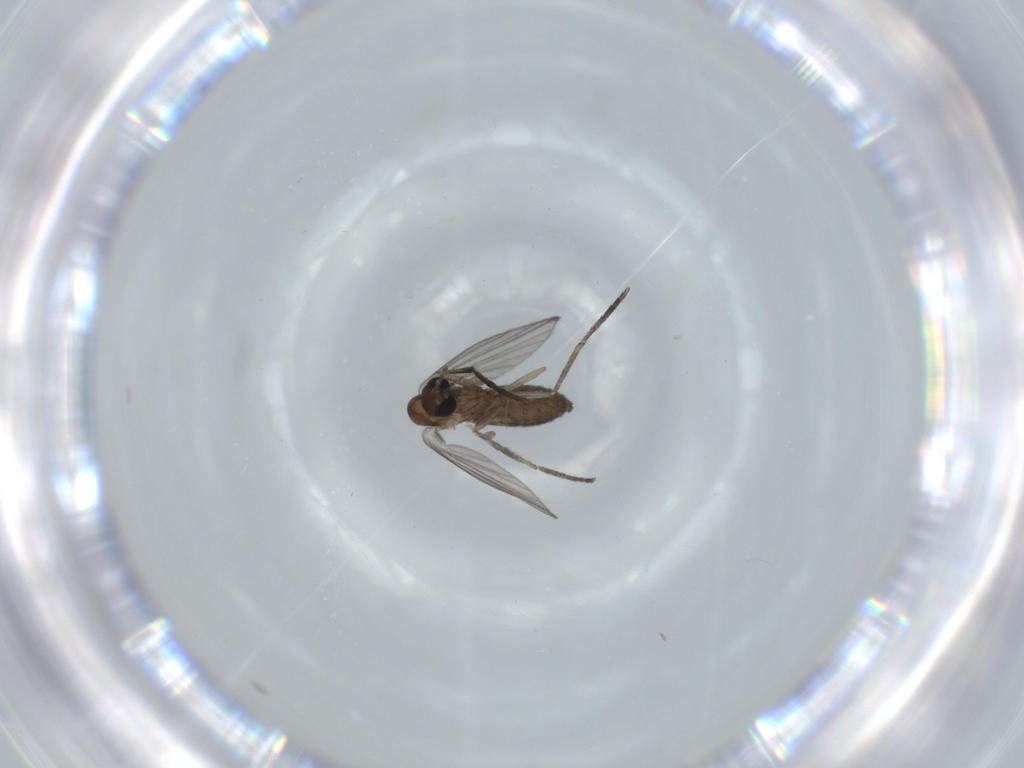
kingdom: Animalia
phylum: Arthropoda
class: Insecta
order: Diptera
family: Psychodidae
